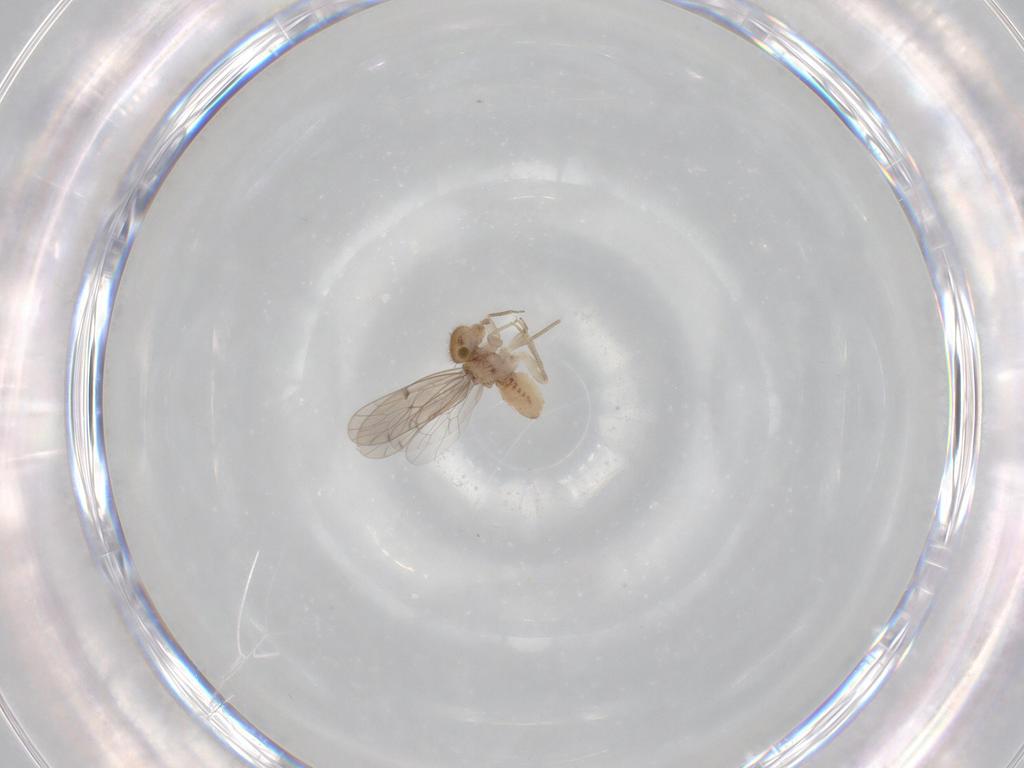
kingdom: Animalia
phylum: Arthropoda
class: Insecta
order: Psocodea
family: Ectopsocidae
